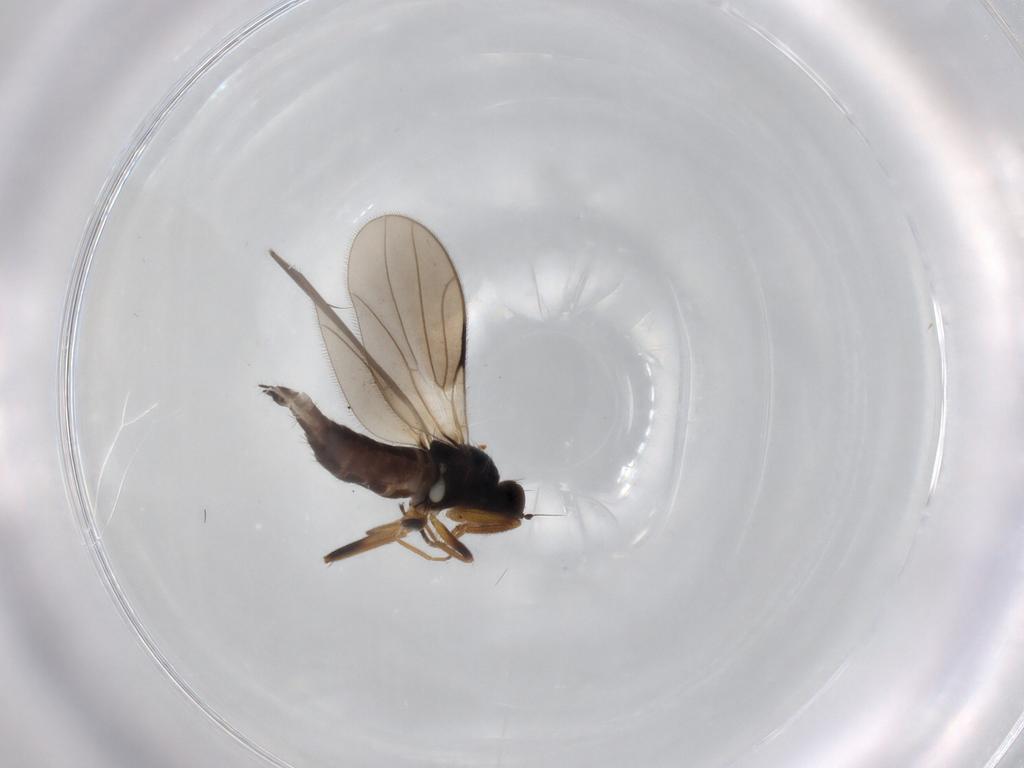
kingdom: Animalia
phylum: Arthropoda
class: Insecta
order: Diptera
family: Hybotidae
